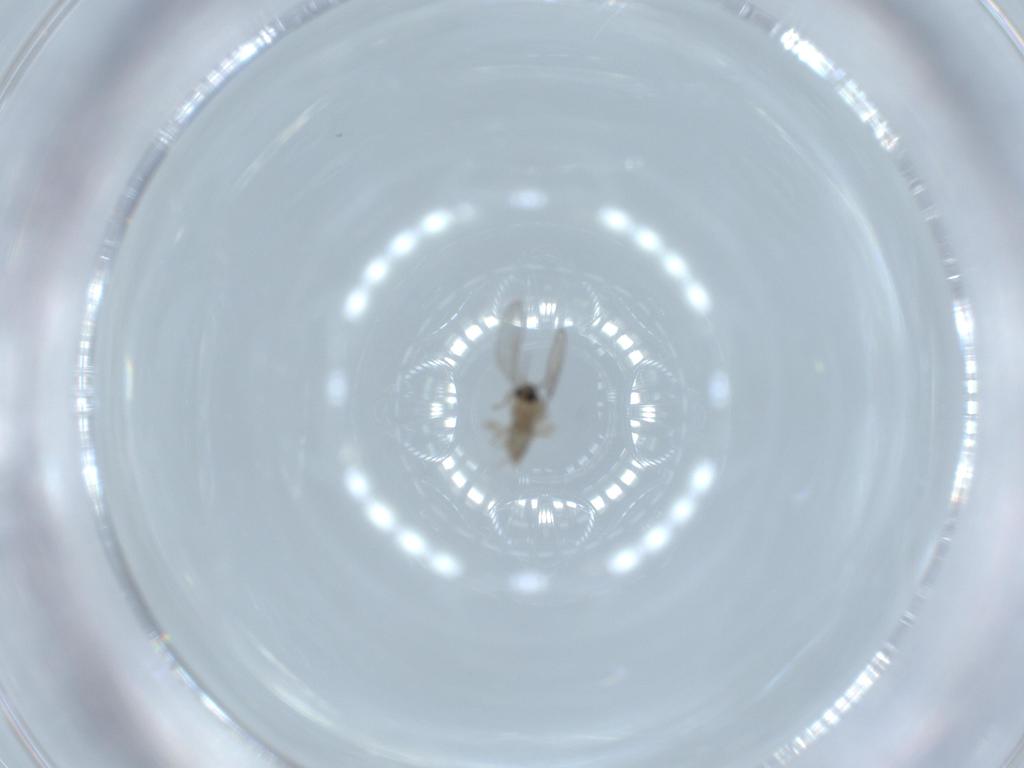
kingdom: Animalia
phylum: Arthropoda
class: Insecta
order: Diptera
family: Cecidomyiidae
